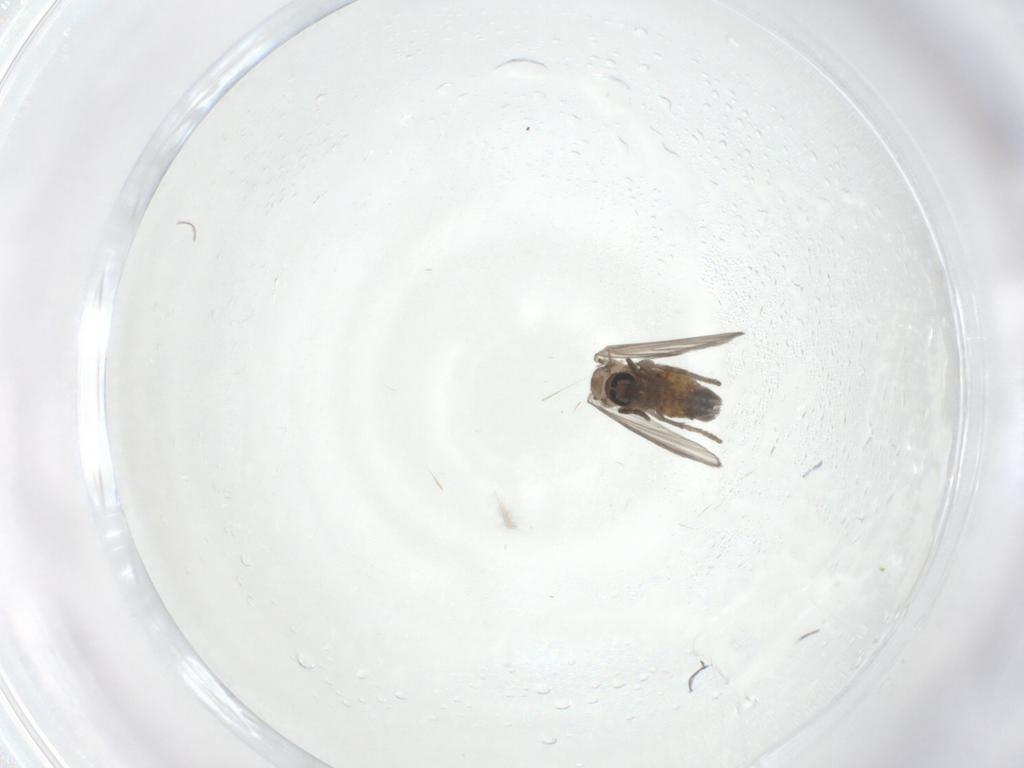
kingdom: Animalia
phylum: Arthropoda
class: Insecta
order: Diptera
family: Psychodidae
